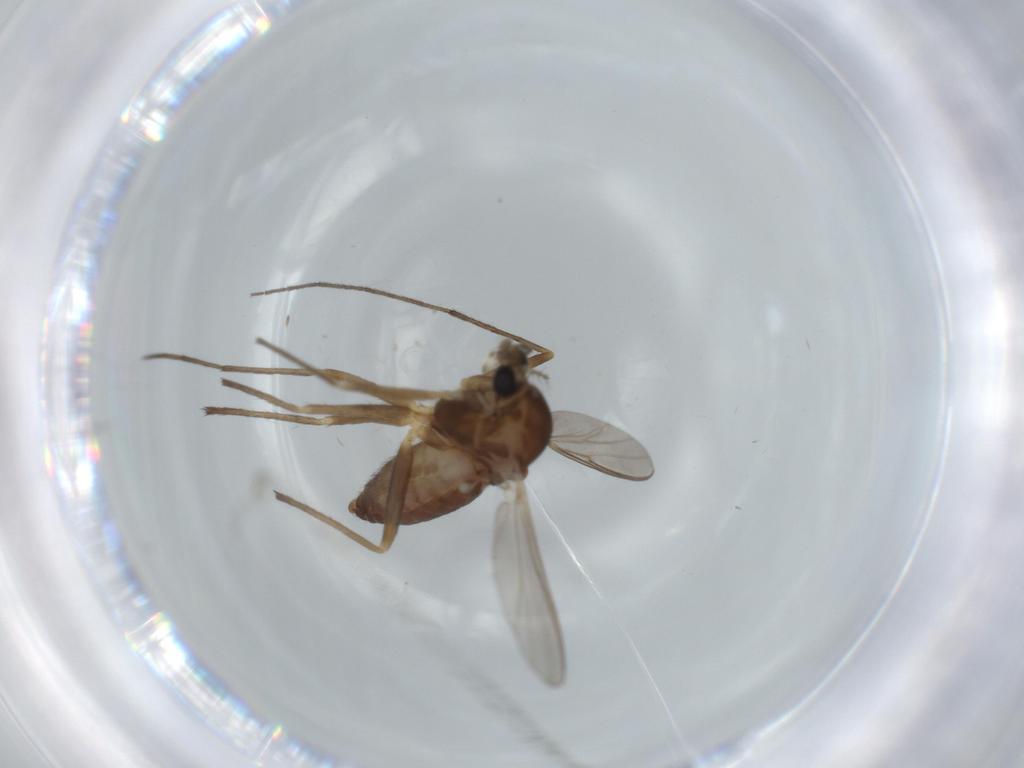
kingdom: Animalia
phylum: Arthropoda
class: Insecta
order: Diptera
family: Chironomidae
